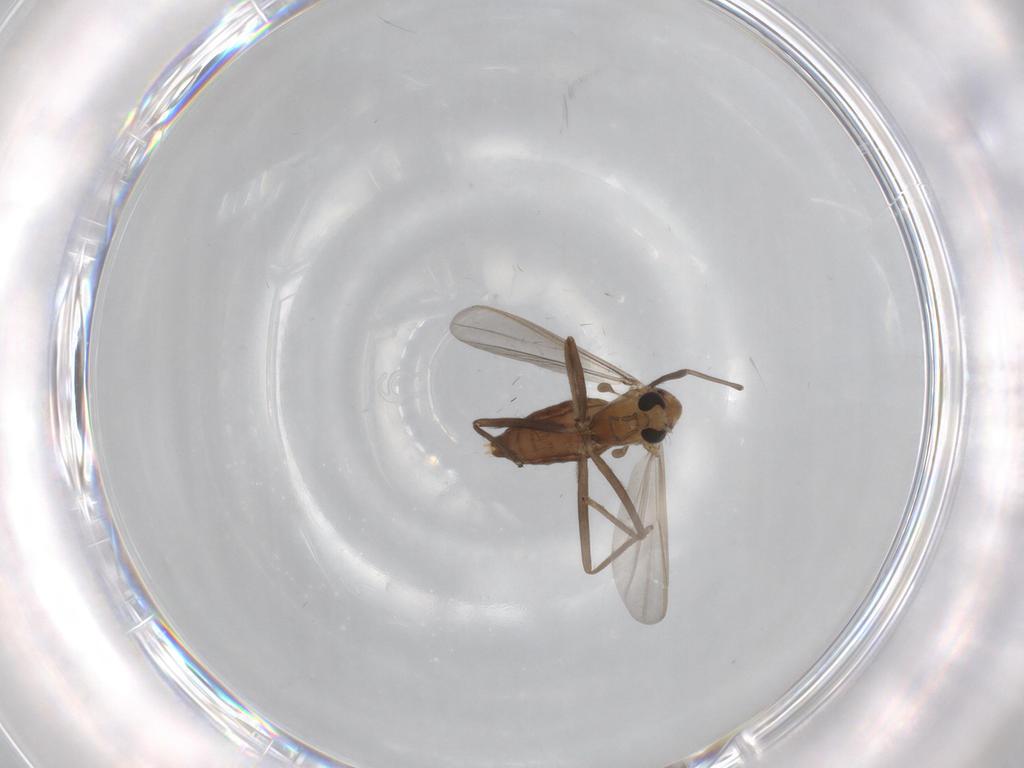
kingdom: Animalia
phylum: Arthropoda
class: Insecta
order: Diptera
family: Chironomidae
